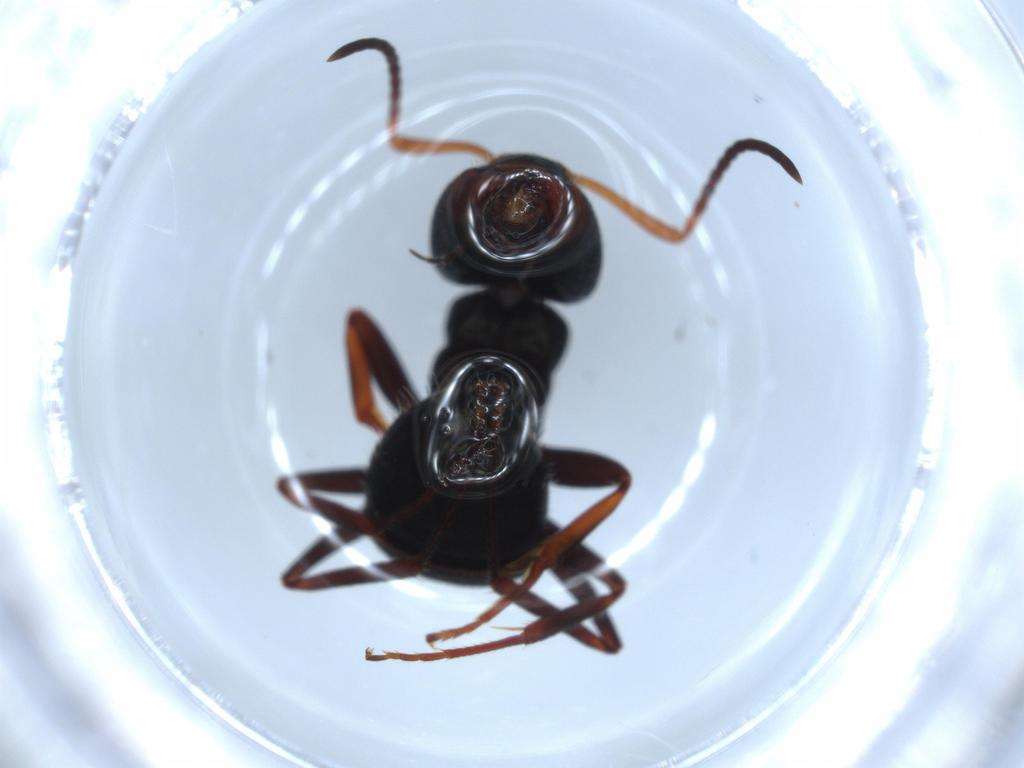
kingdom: Animalia
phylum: Arthropoda
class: Insecta
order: Hymenoptera
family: Formicidae
